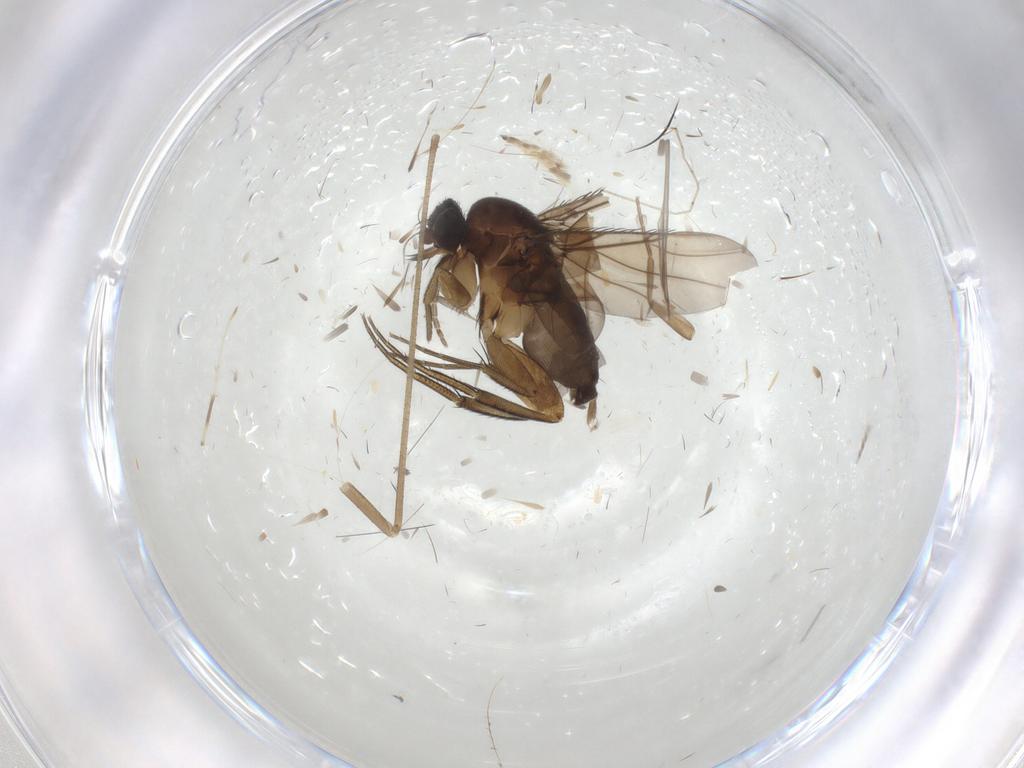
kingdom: Animalia
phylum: Arthropoda
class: Insecta
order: Diptera
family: Phoridae
